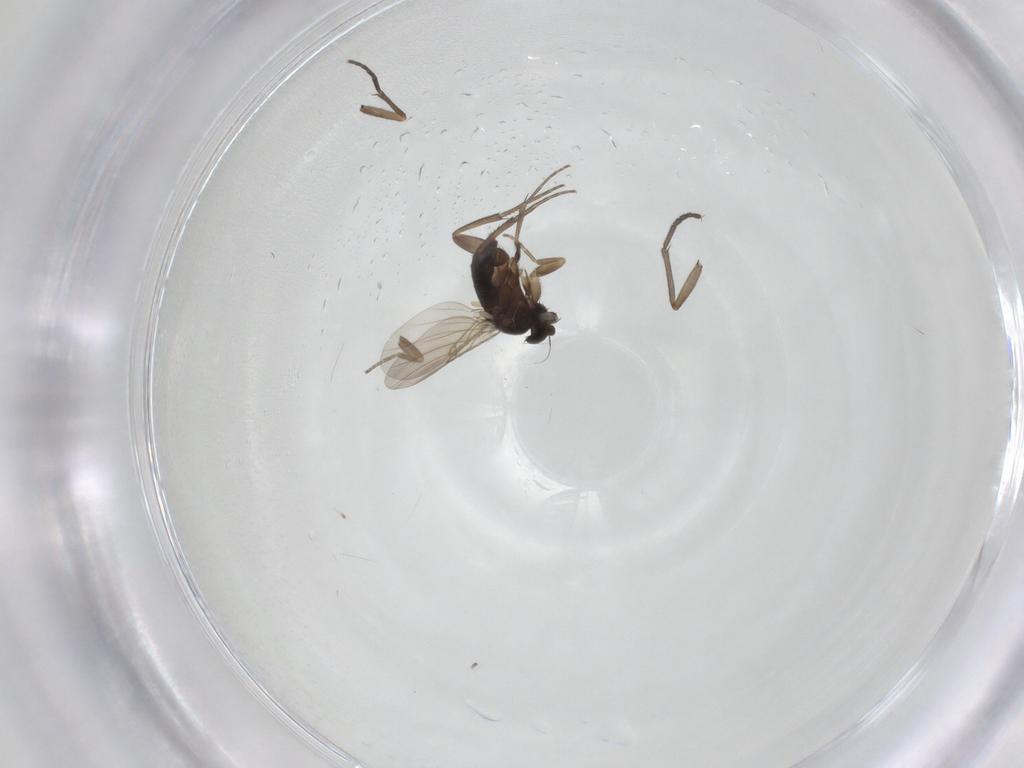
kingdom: Animalia
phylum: Arthropoda
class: Insecta
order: Diptera
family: Phoridae
